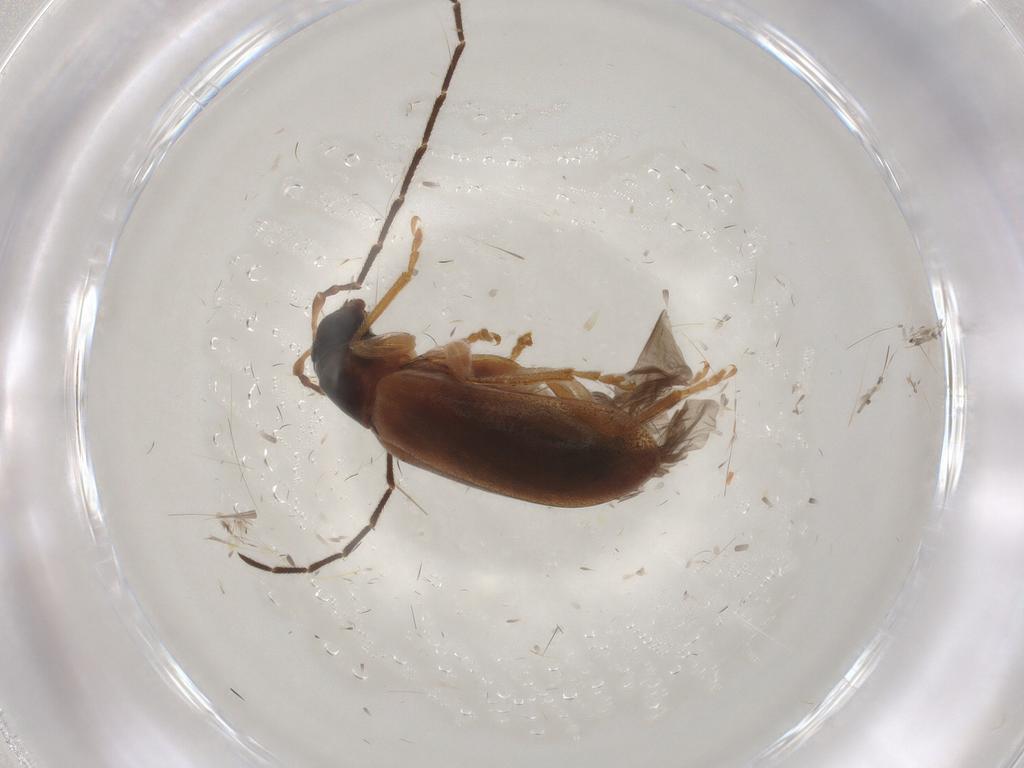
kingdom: Animalia
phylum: Arthropoda
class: Insecta
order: Coleoptera
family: Chrysomelidae
